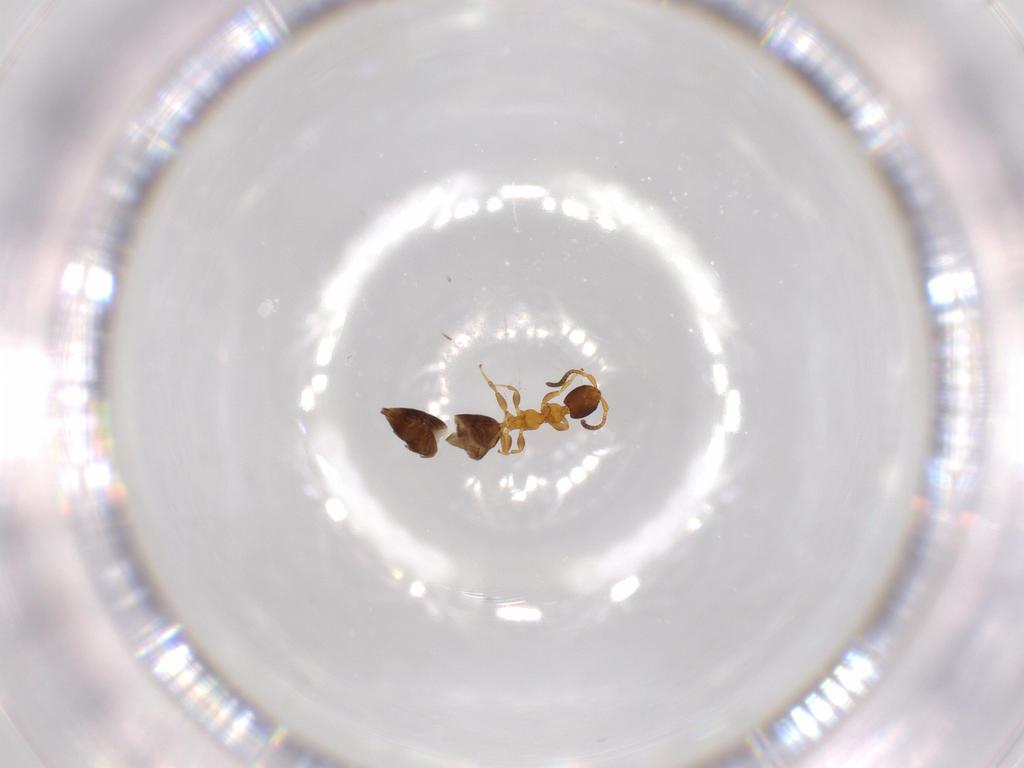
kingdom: Animalia
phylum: Arthropoda
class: Insecta
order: Hymenoptera
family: Bethylidae
